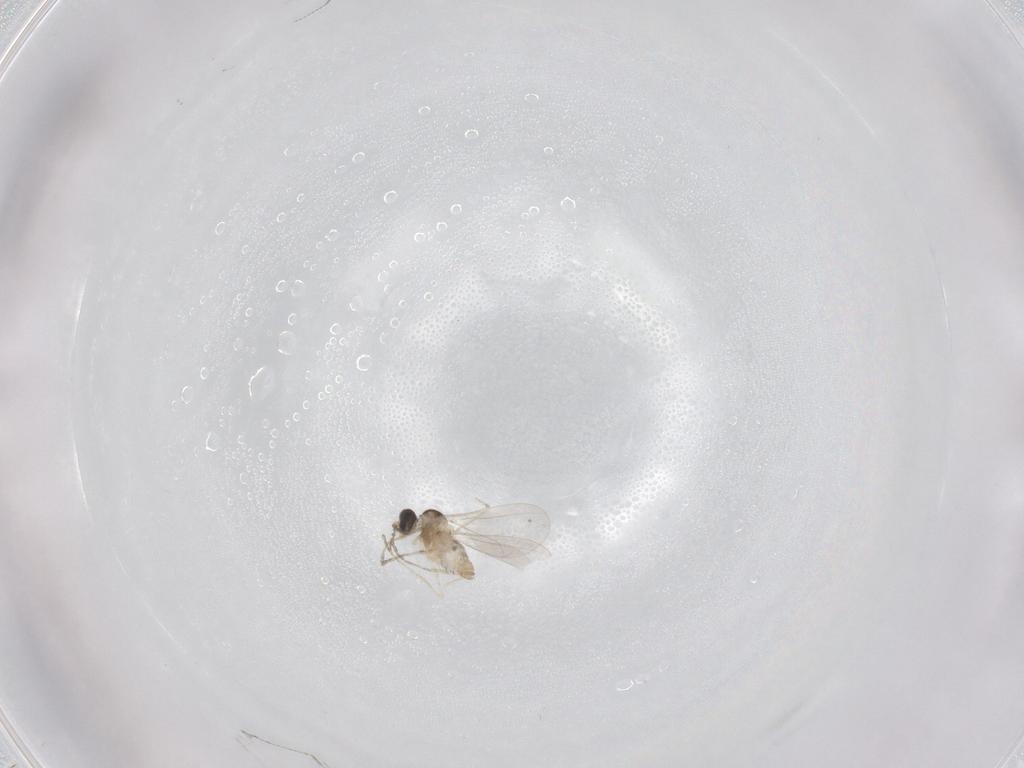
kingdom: Animalia
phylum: Arthropoda
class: Insecta
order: Diptera
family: Cecidomyiidae
